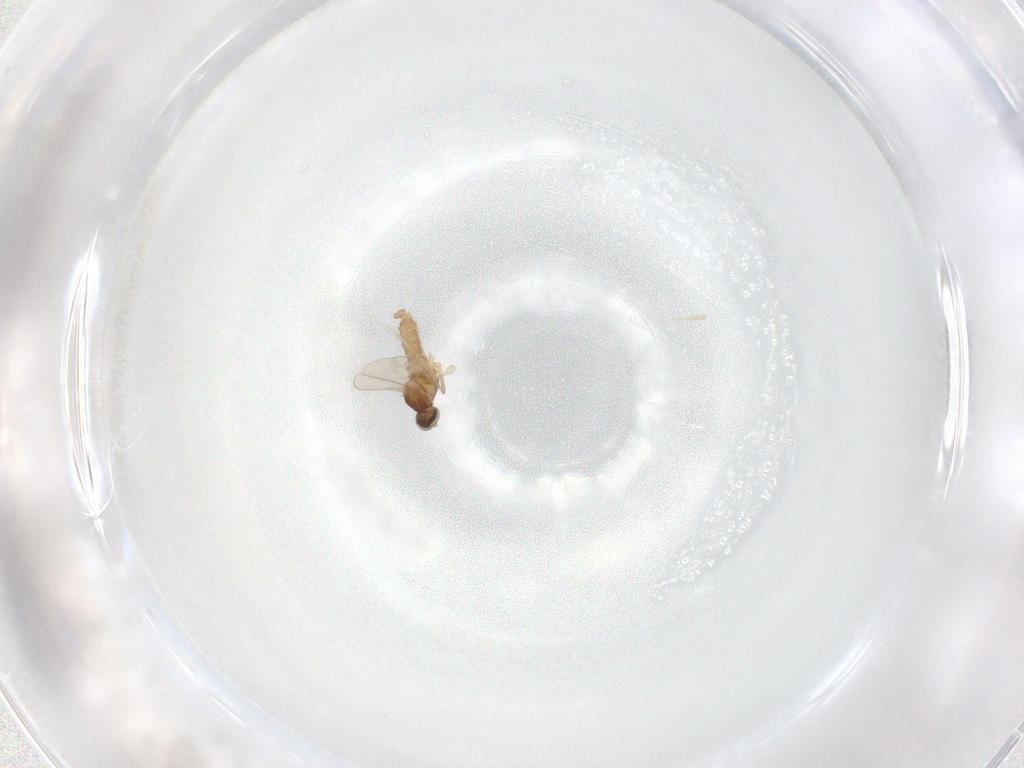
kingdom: Animalia
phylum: Arthropoda
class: Insecta
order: Diptera
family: Cecidomyiidae
